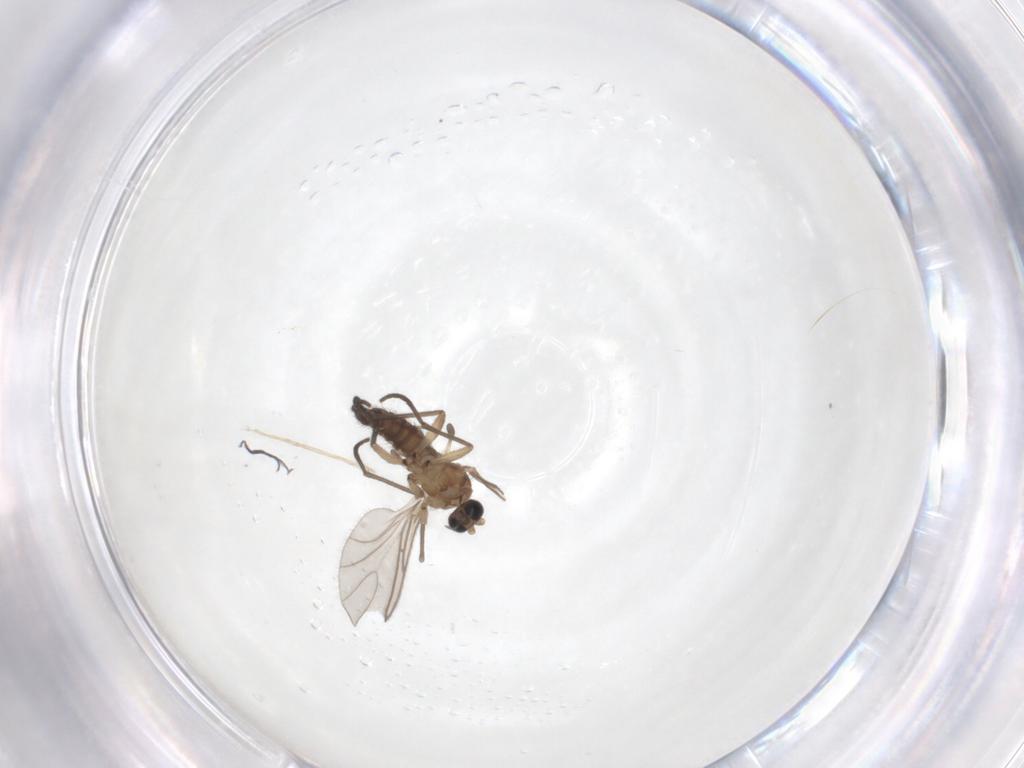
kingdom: Animalia
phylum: Arthropoda
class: Insecta
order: Diptera
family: Sciaridae
